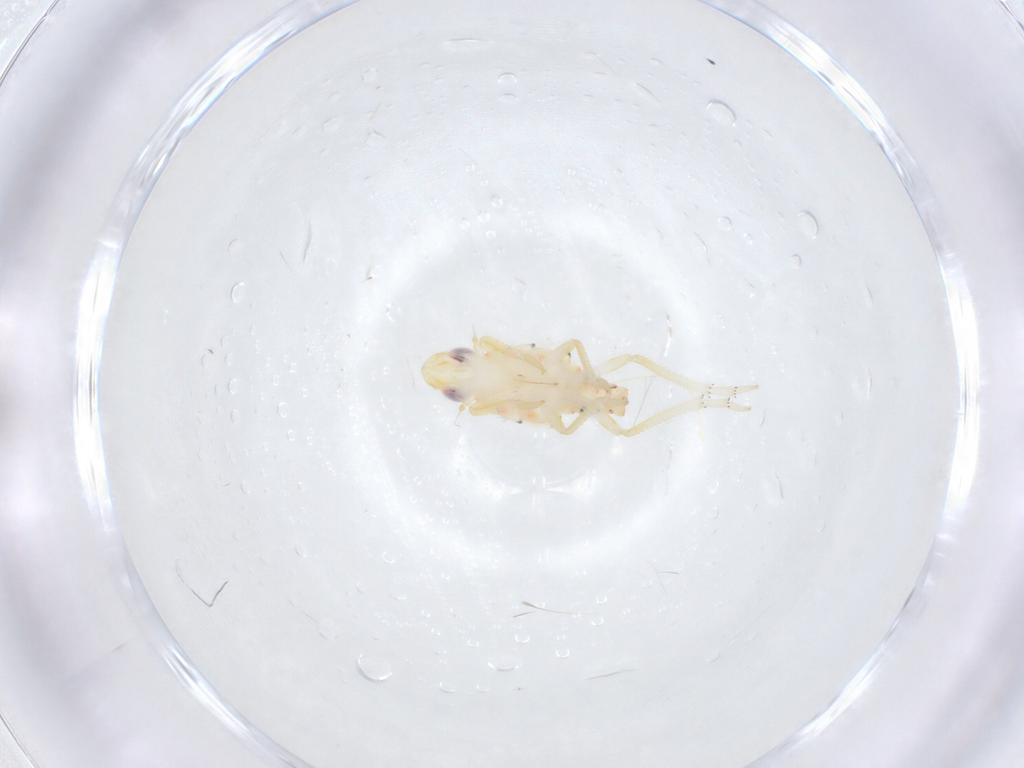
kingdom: Animalia
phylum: Arthropoda
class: Insecta
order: Hemiptera
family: Tropiduchidae
